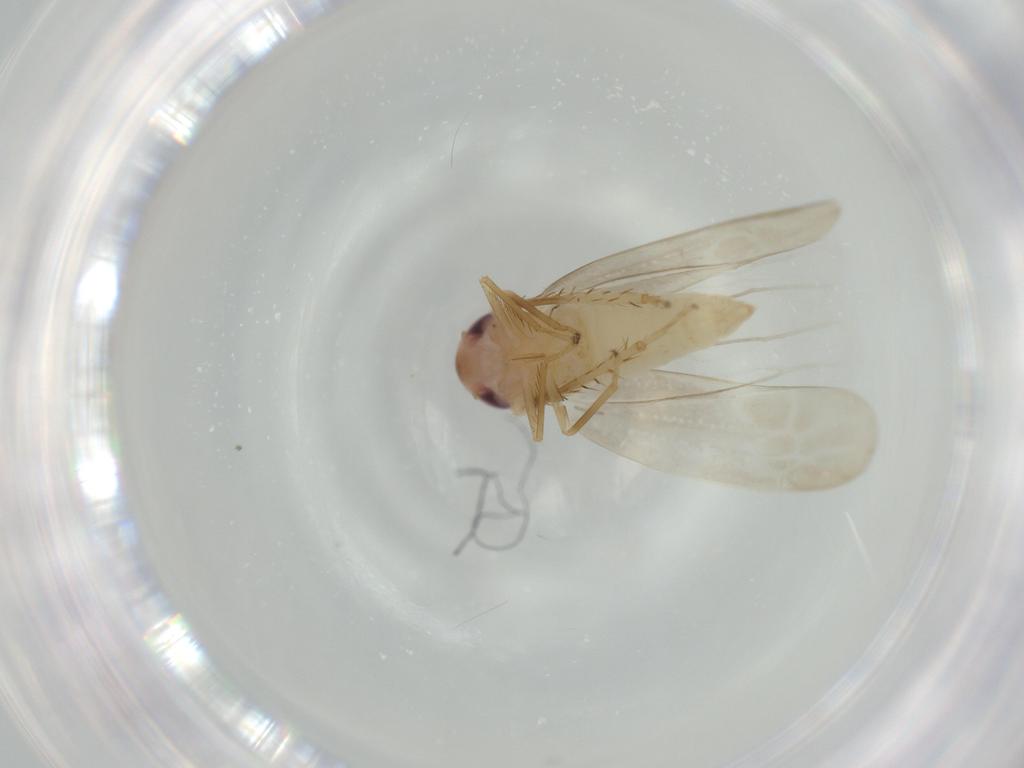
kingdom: Animalia
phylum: Arthropoda
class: Insecta
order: Hemiptera
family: Cicadellidae
